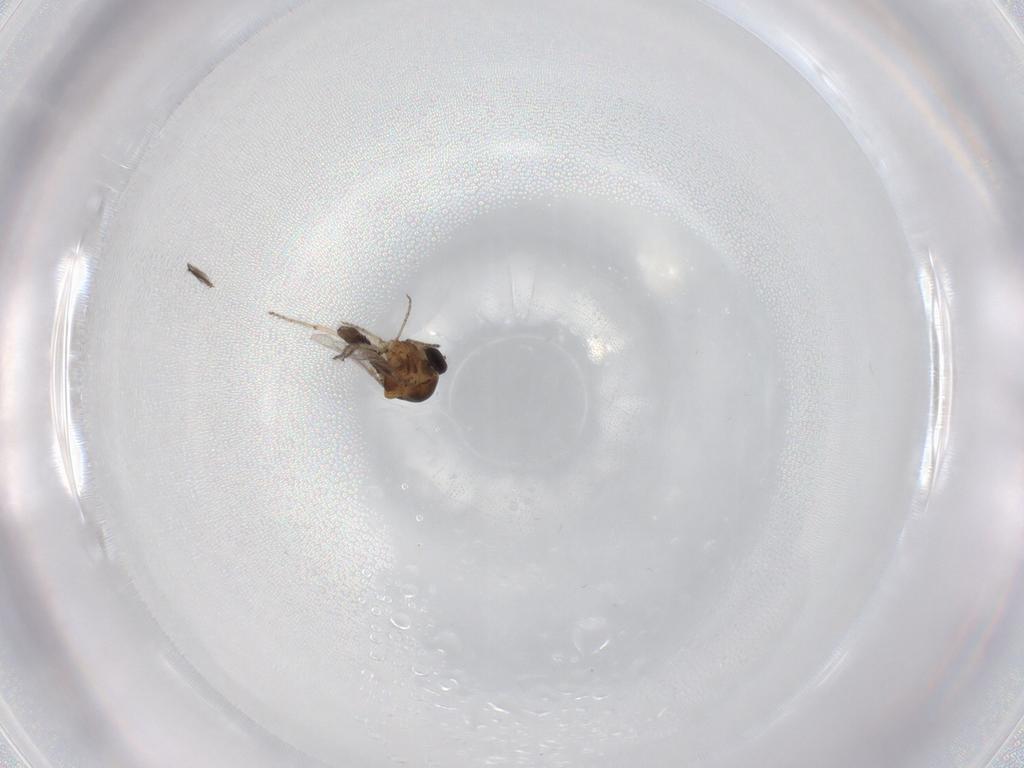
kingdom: Animalia
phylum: Arthropoda
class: Insecta
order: Diptera
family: Ceratopogonidae
